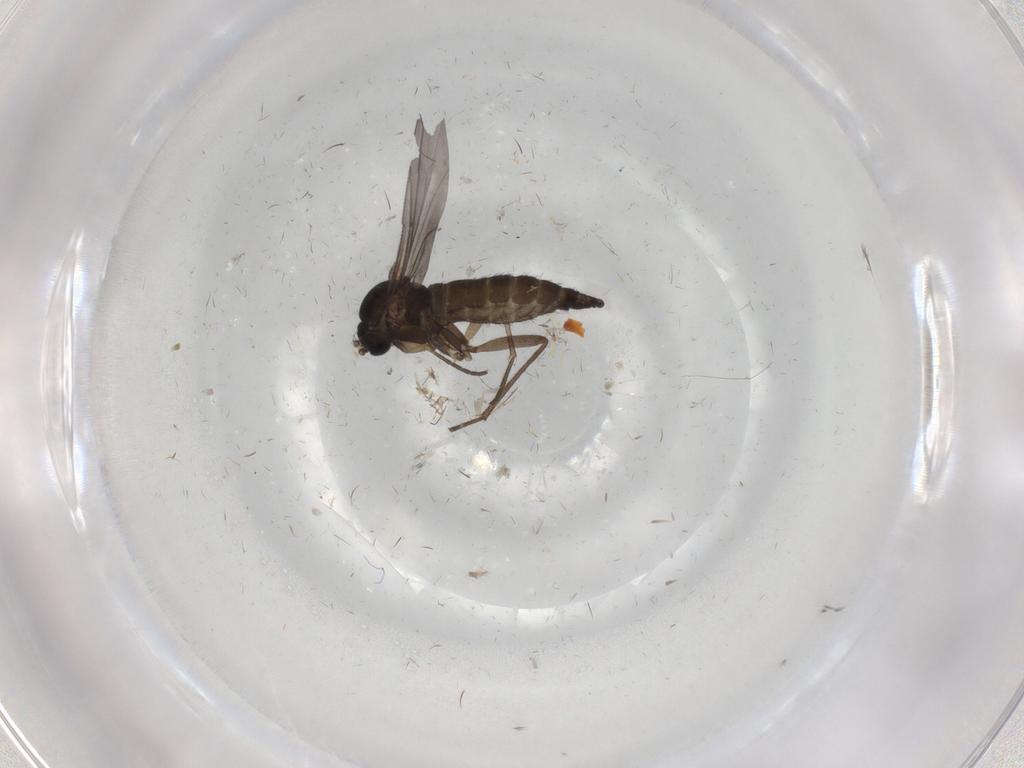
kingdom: Animalia
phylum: Arthropoda
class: Insecta
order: Diptera
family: Sciaridae
